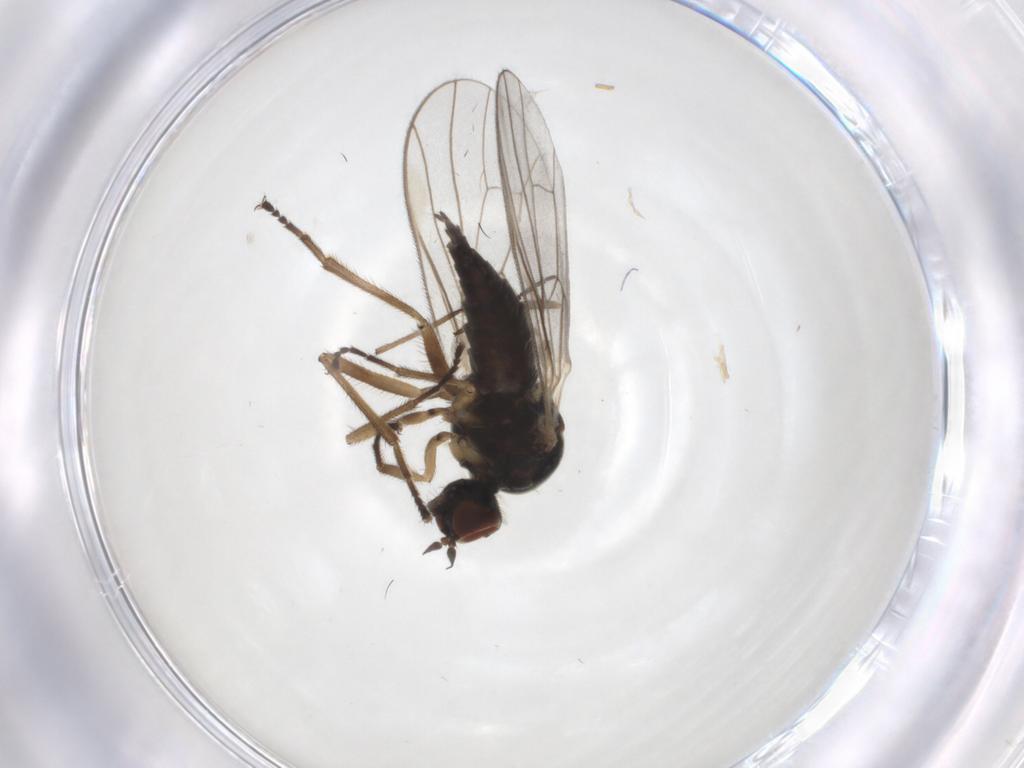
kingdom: Animalia
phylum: Arthropoda
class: Insecta
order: Diptera
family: Hybotidae
